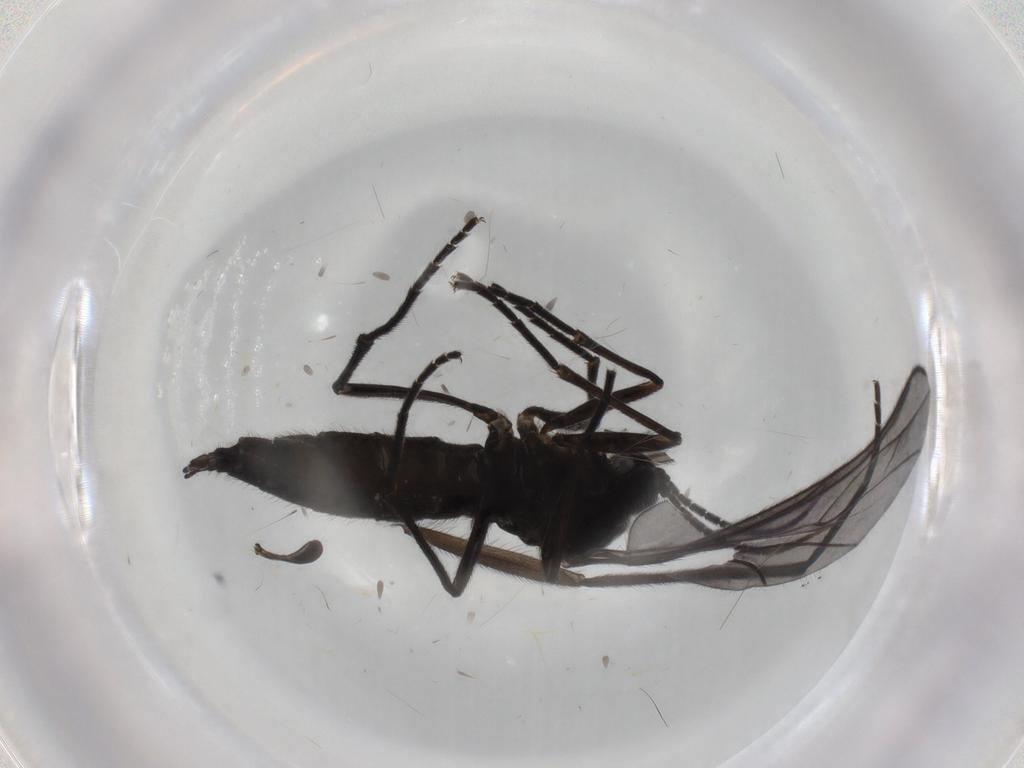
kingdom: Animalia
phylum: Arthropoda
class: Insecta
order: Diptera
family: Sciaridae
